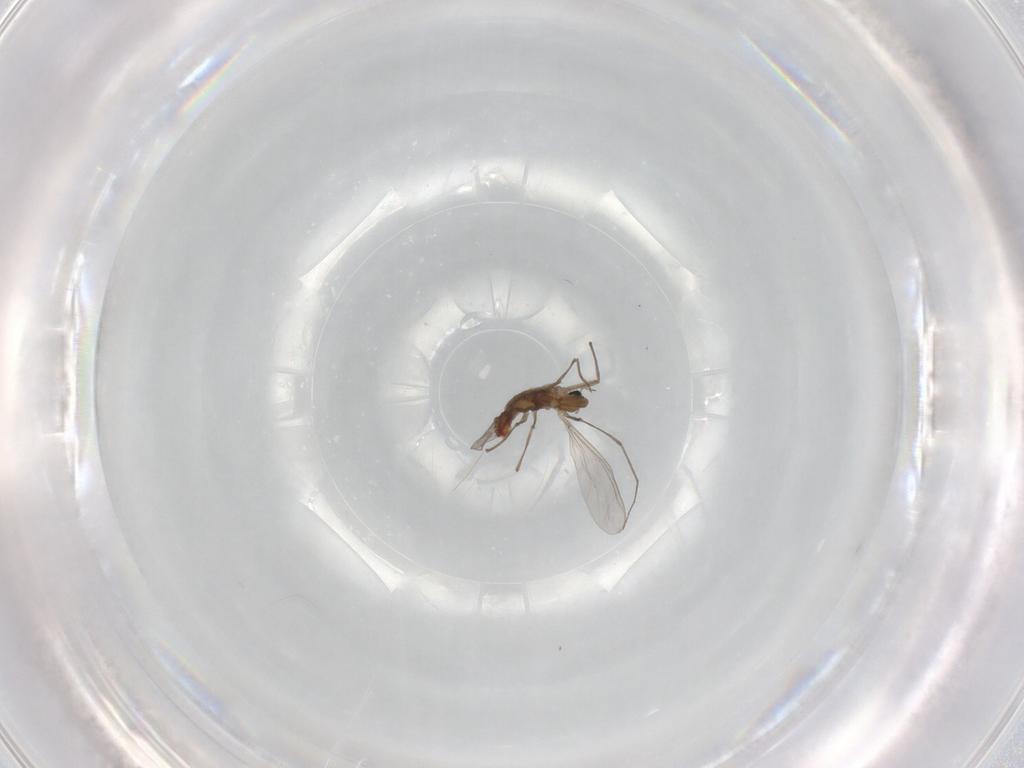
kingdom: Animalia
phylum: Arthropoda
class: Insecta
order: Diptera
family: Chironomidae
